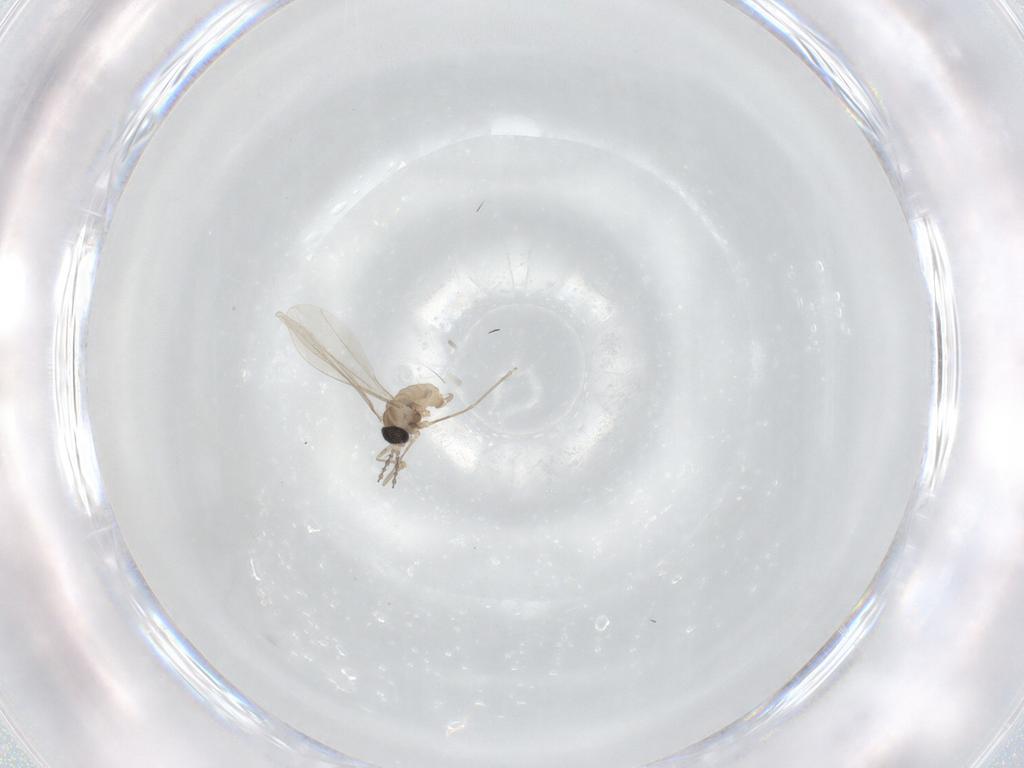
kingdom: Animalia
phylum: Arthropoda
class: Insecta
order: Diptera
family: Cecidomyiidae
